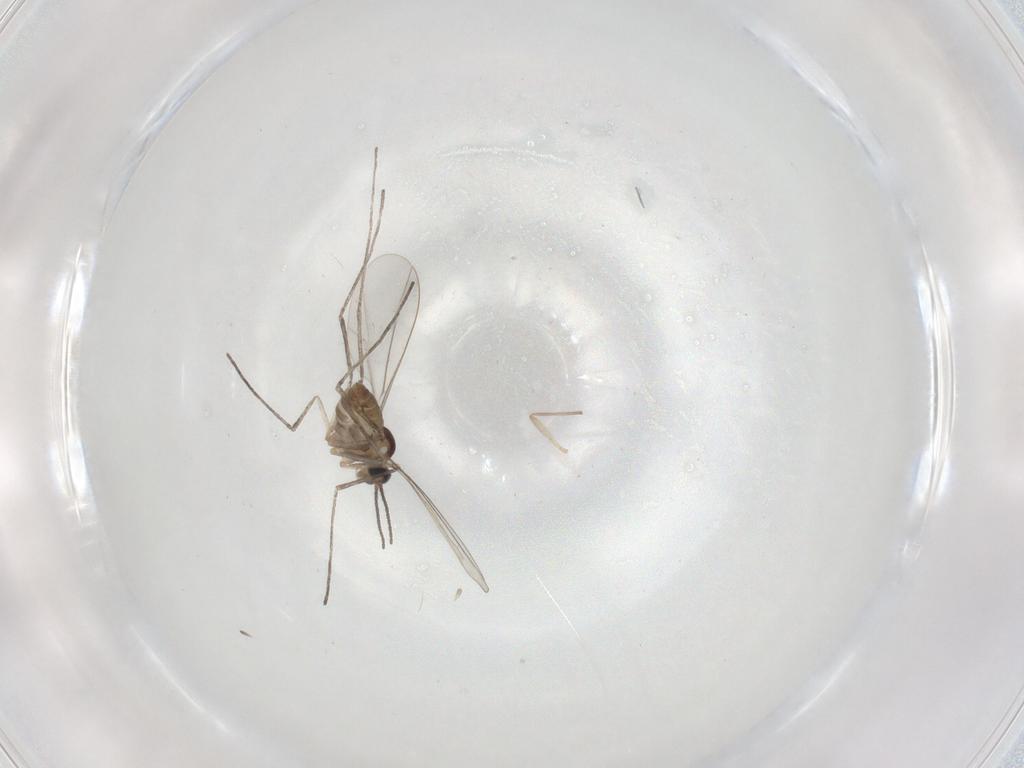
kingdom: Animalia
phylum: Arthropoda
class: Insecta
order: Diptera
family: Cecidomyiidae
